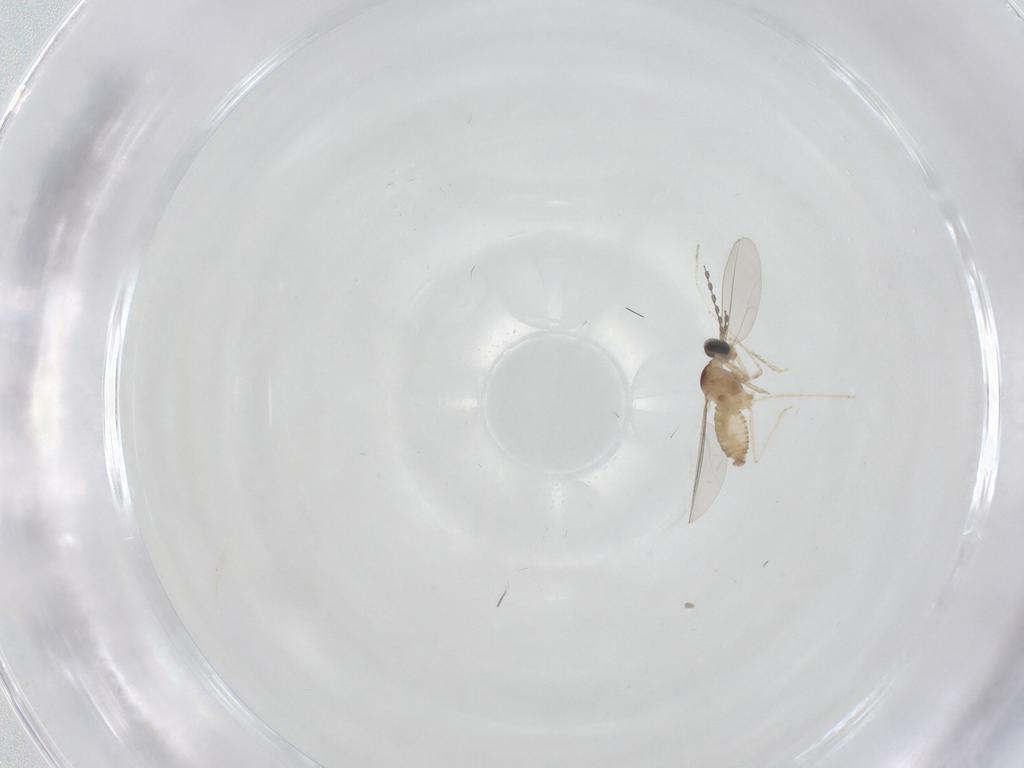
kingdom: Animalia
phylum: Arthropoda
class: Insecta
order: Diptera
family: Cecidomyiidae
